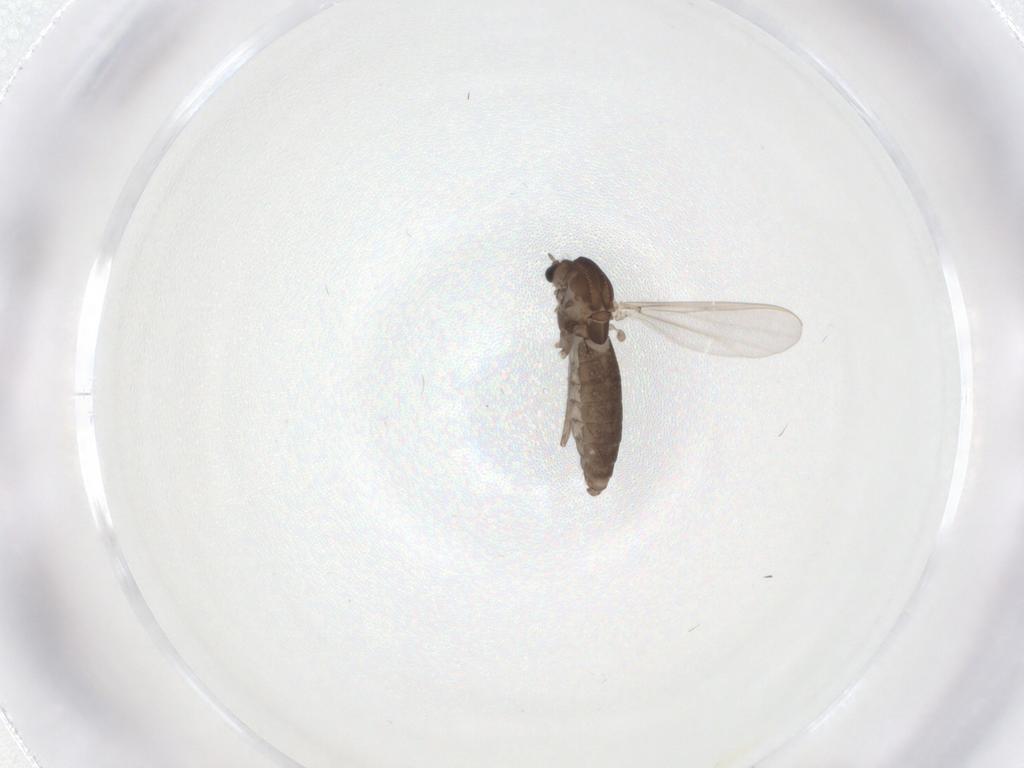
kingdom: Animalia
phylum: Arthropoda
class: Insecta
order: Diptera
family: Chironomidae
